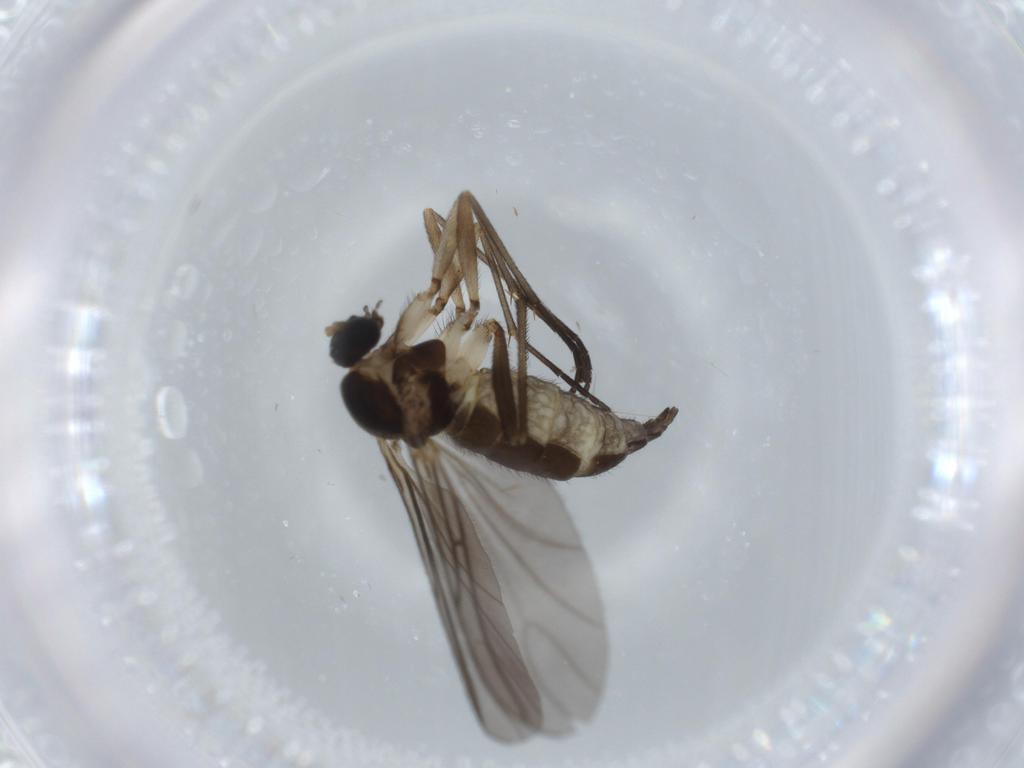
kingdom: Animalia
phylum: Arthropoda
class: Insecta
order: Diptera
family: Sciaridae
